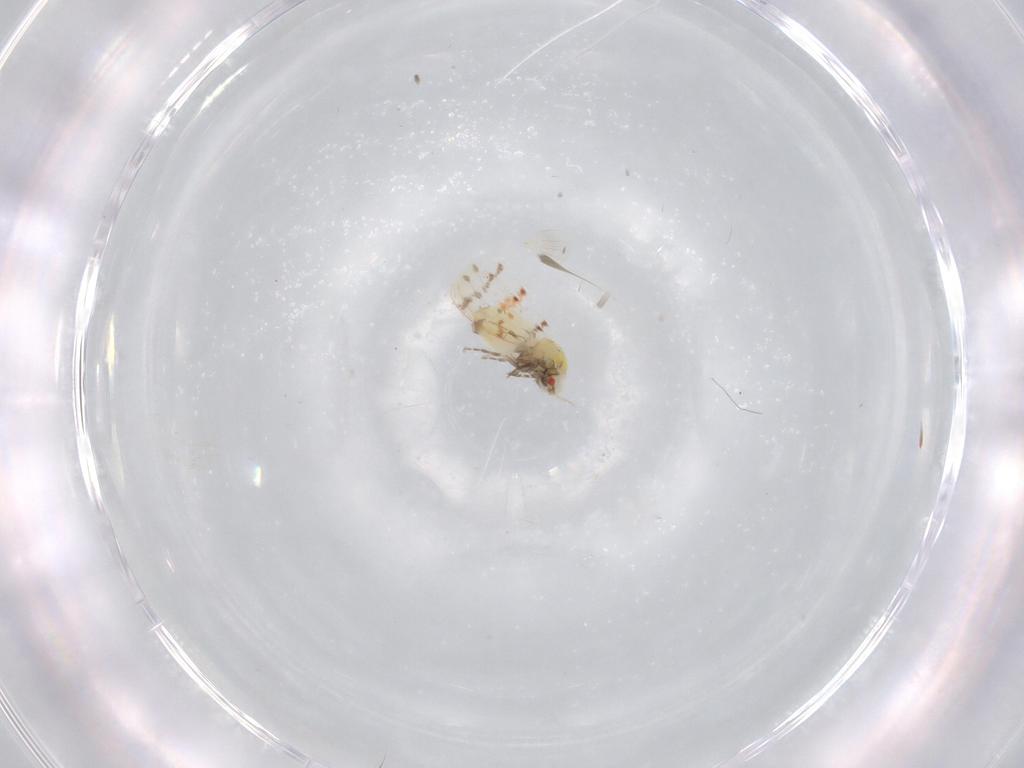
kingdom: Animalia
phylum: Arthropoda
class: Insecta
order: Hemiptera
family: Aleyrodidae
